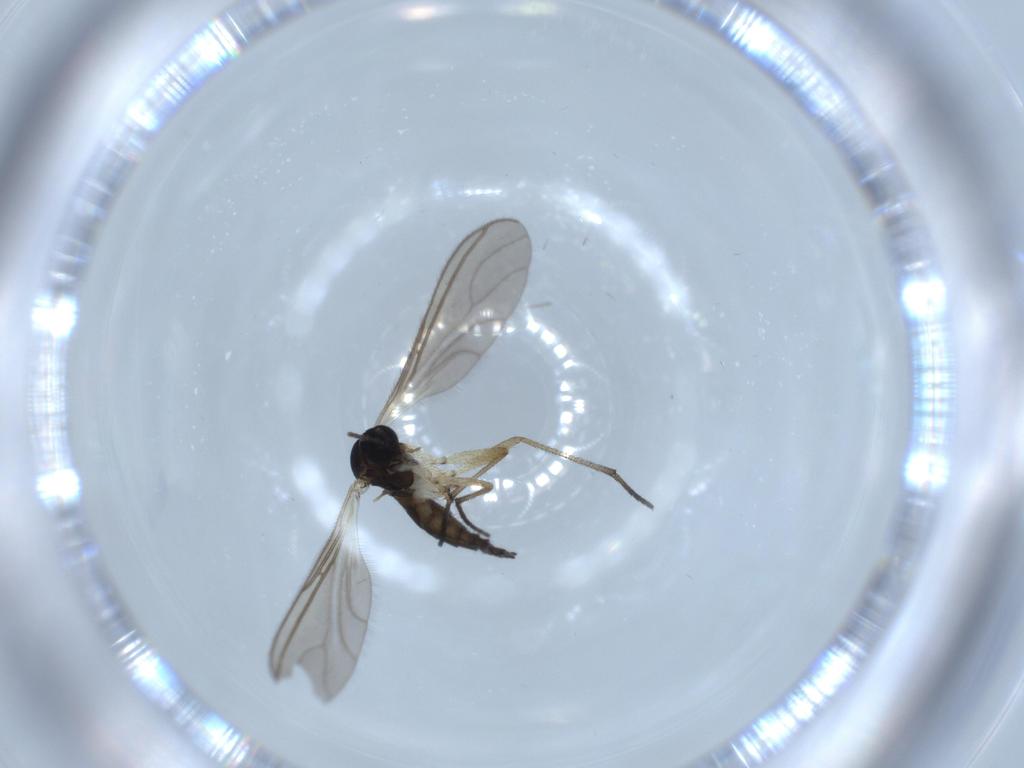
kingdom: Animalia
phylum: Arthropoda
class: Insecta
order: Diptera
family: Sciaridae
